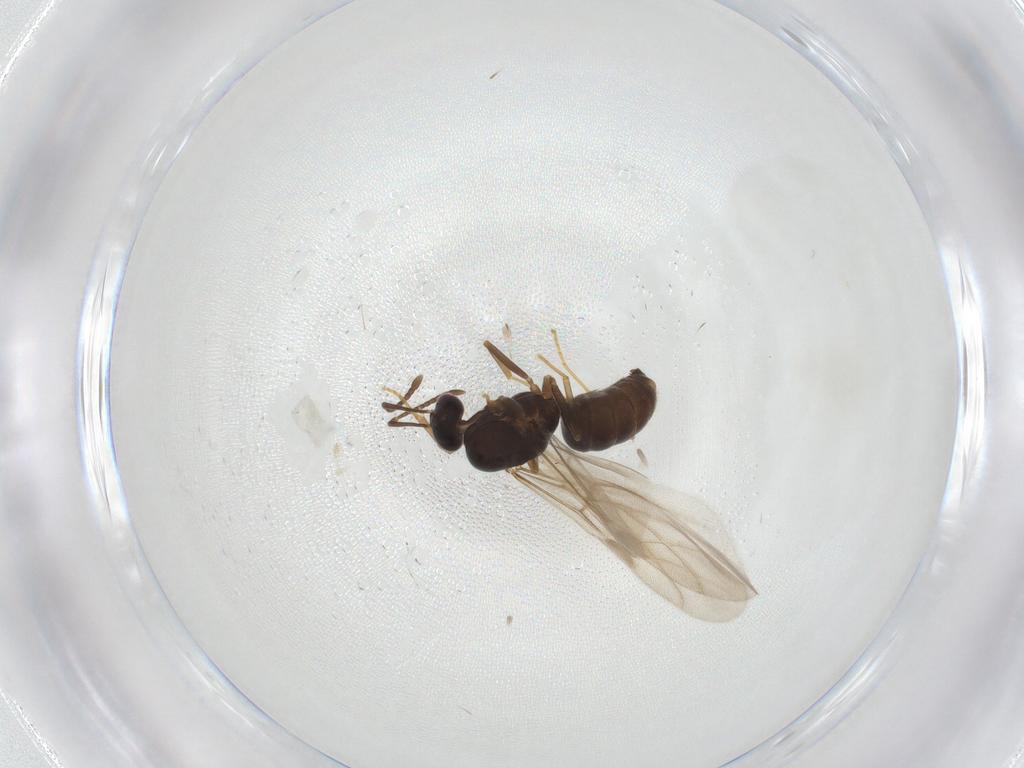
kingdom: Animalia
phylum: Arthropoda
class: Insecta
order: Hymenoptera
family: Formicidae
